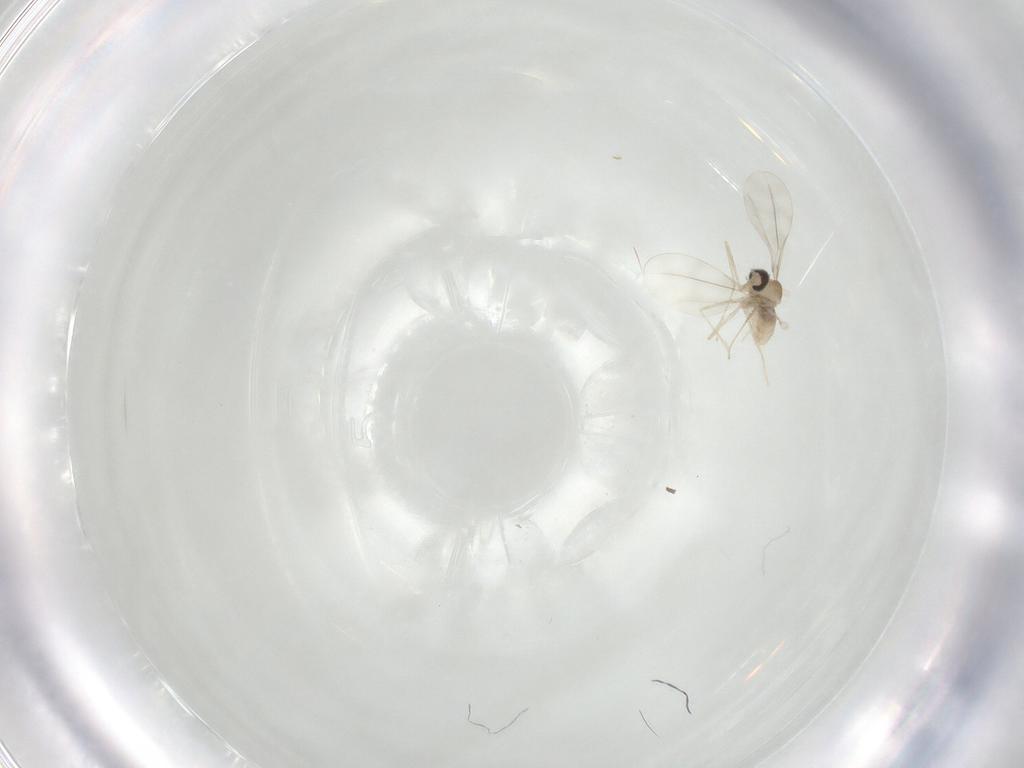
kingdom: Animalia
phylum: Arthropoda
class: Insecta
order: Diptera
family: Cecidomyiidae
